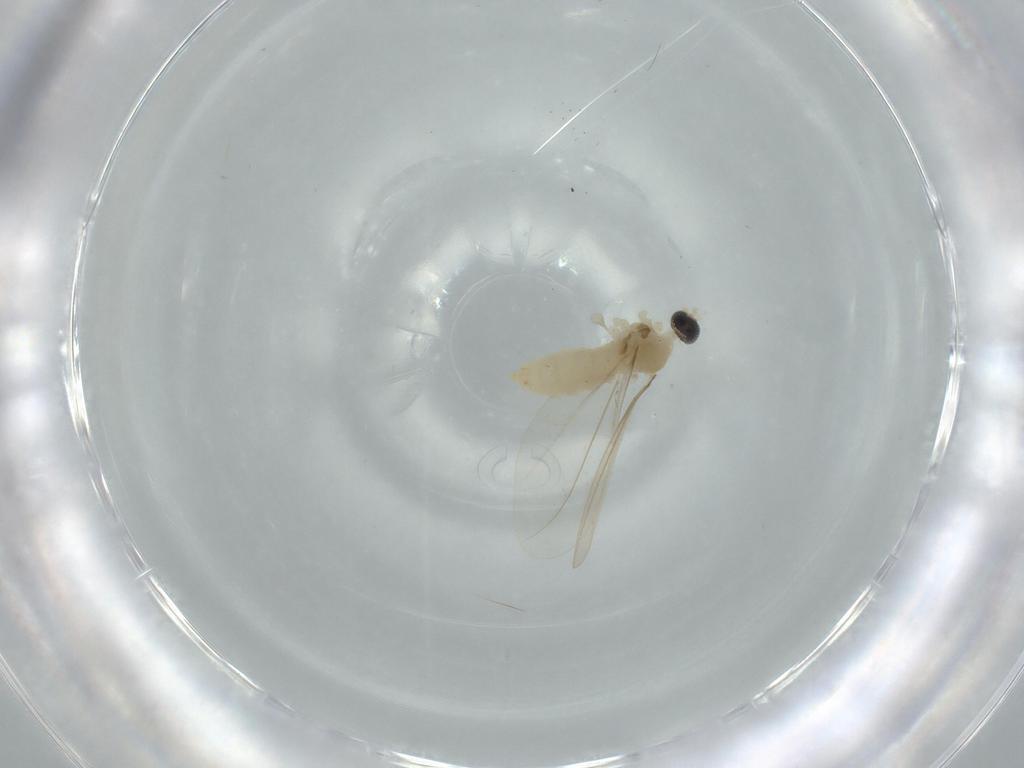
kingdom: Animalia
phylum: Arthropoda
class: Insecta
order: Diptera
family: Cecidomyiidae
